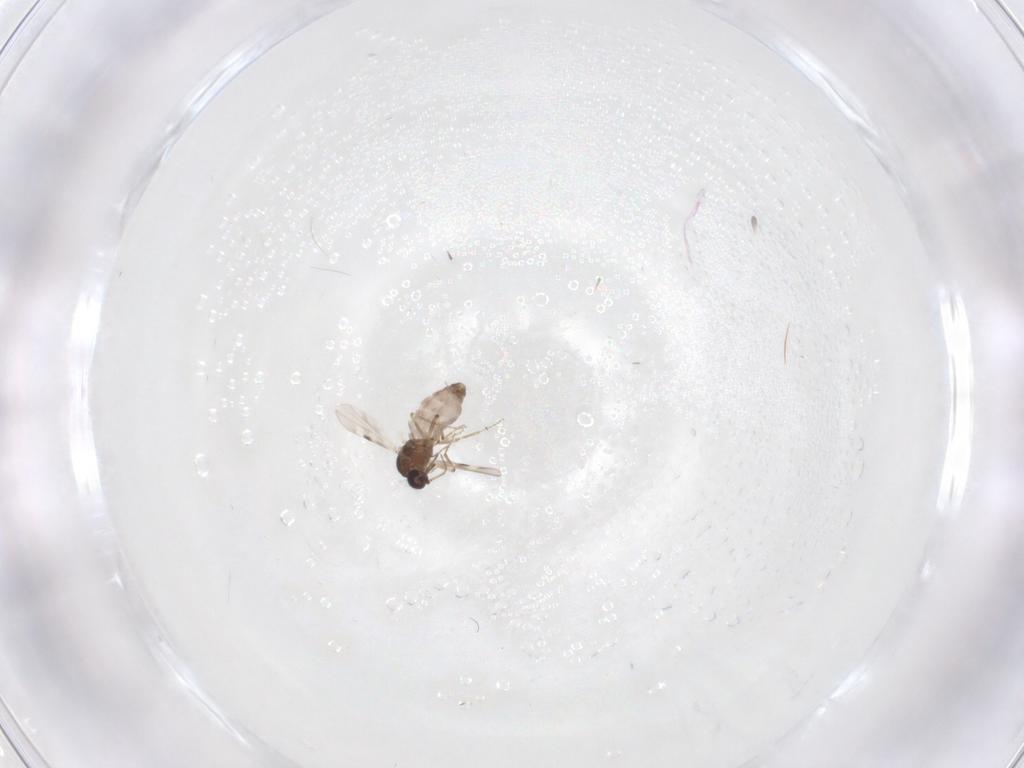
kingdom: Animalia
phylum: Arthropoda
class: Insecta
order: Diptera
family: Cecidomyiidae
